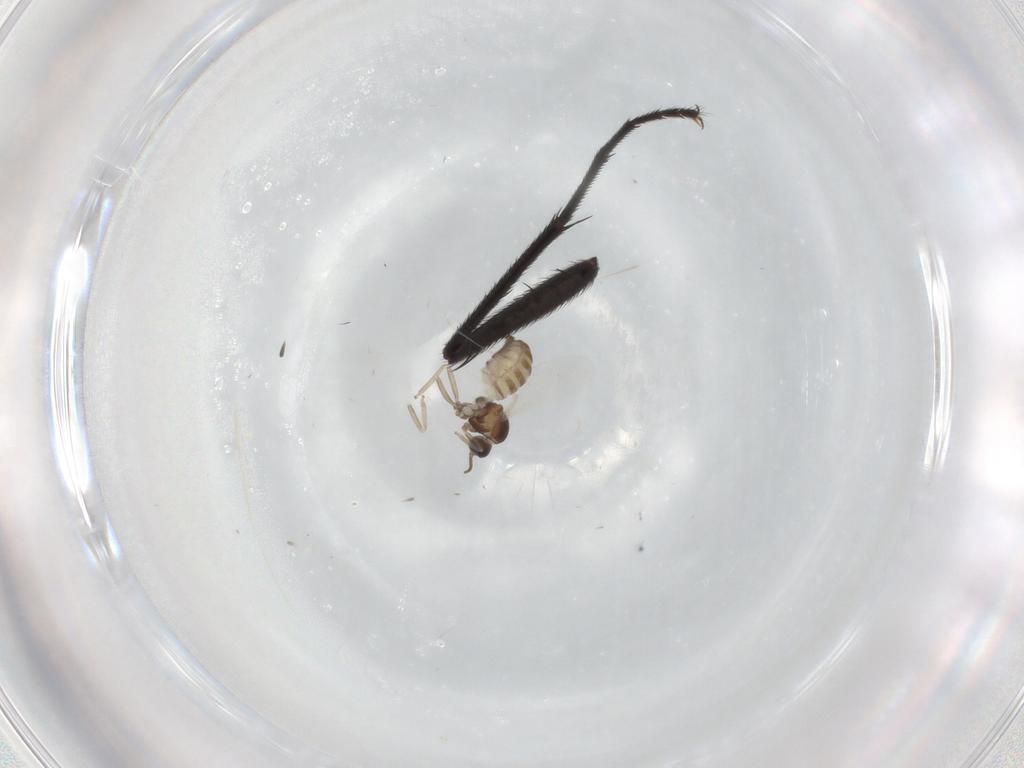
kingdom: Animalia
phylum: Arthropoda
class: Insecta
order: Diptera
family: Cecidomyiidae
